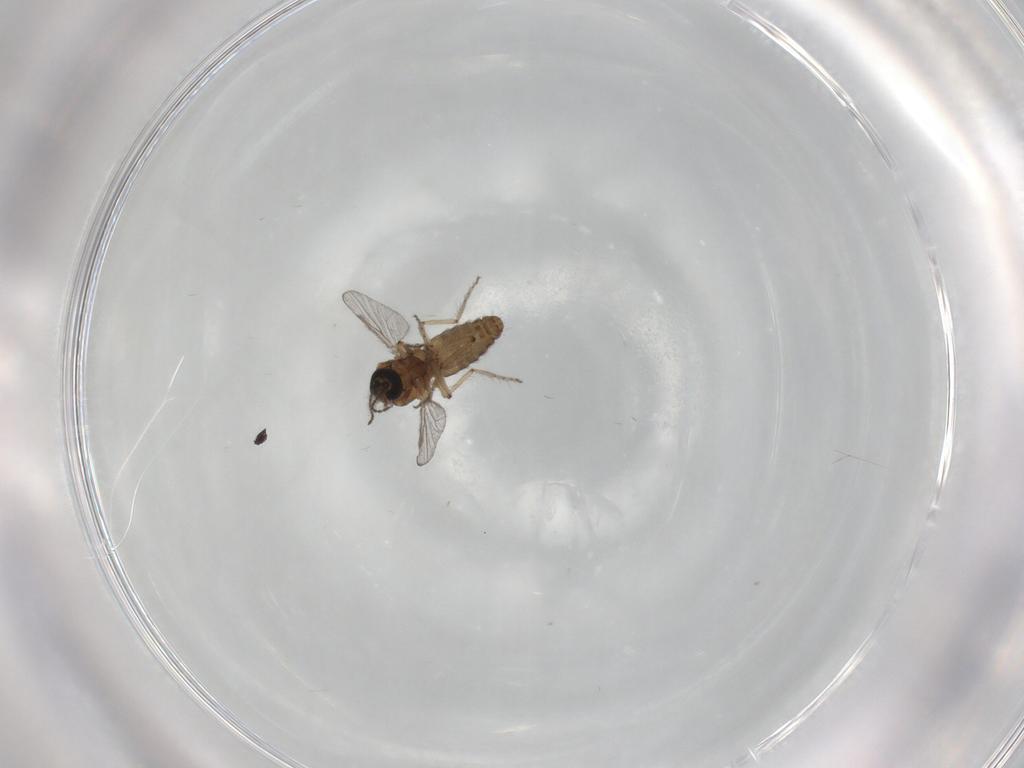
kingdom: Animalia
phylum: Arthropoda
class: Insecta
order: Diptera
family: Ceratopogonidae
